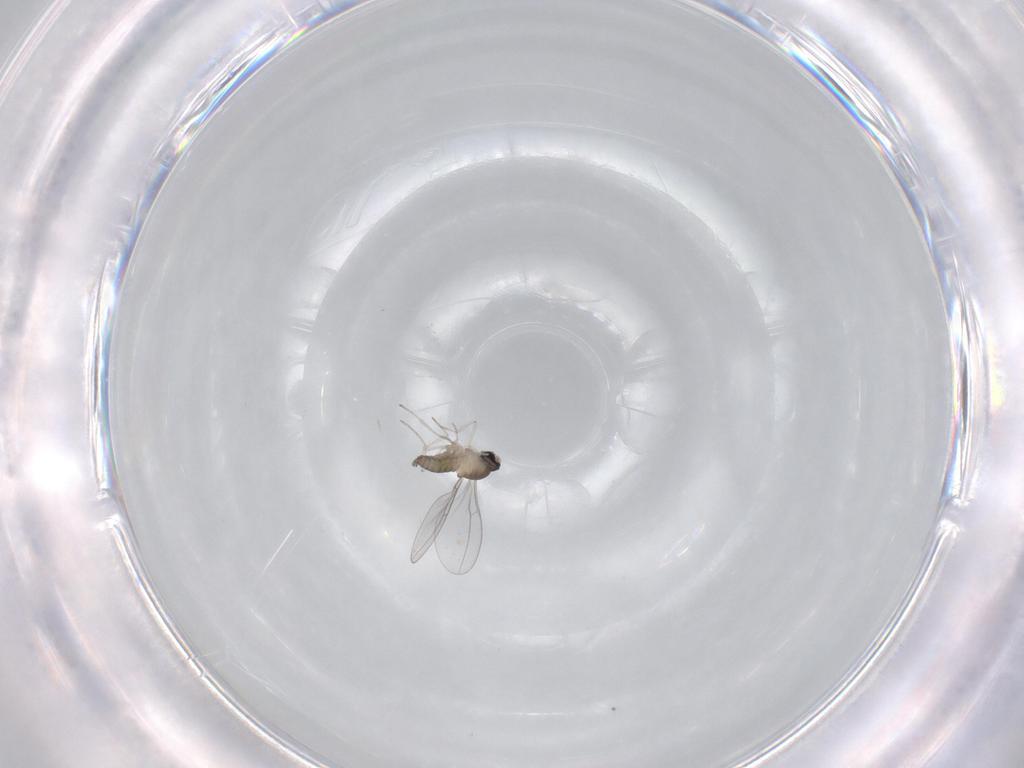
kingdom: Animalia
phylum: Arthropoda
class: Insecta
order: Diptera
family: Cecidomyiidae
